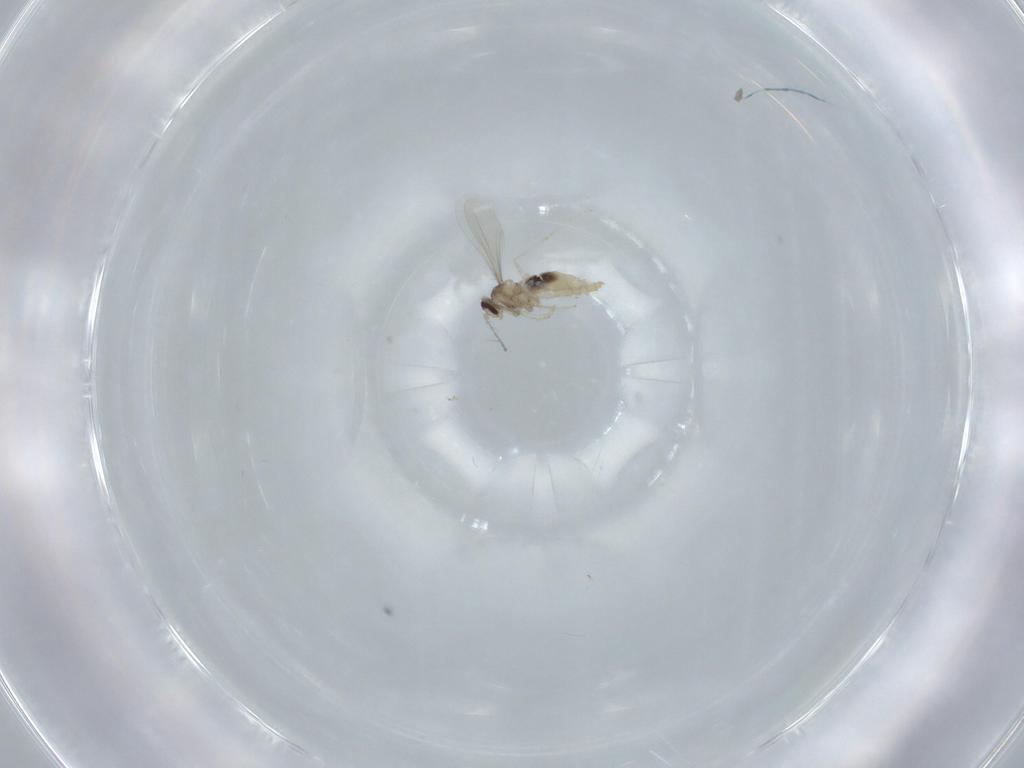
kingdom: Animalia
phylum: Arthropoda
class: Insecta
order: Diptera
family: Cecidomyiidae
